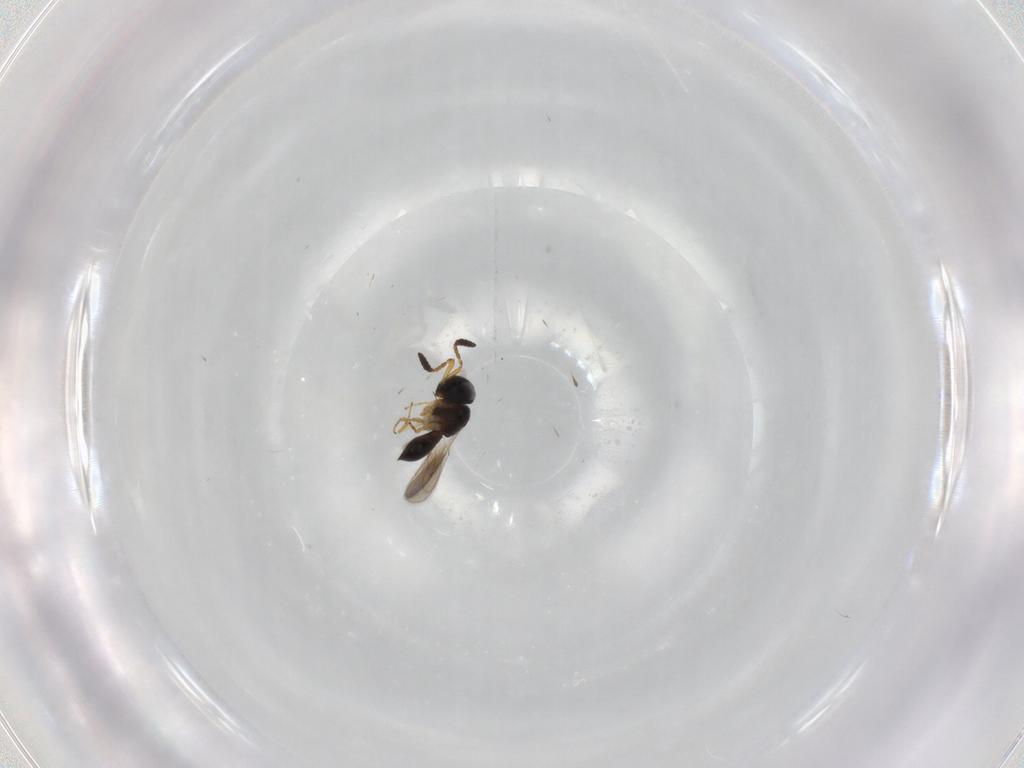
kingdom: Animalia
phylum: Arthropoda
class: Insecta
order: Hymenoptera
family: Scelionidae
